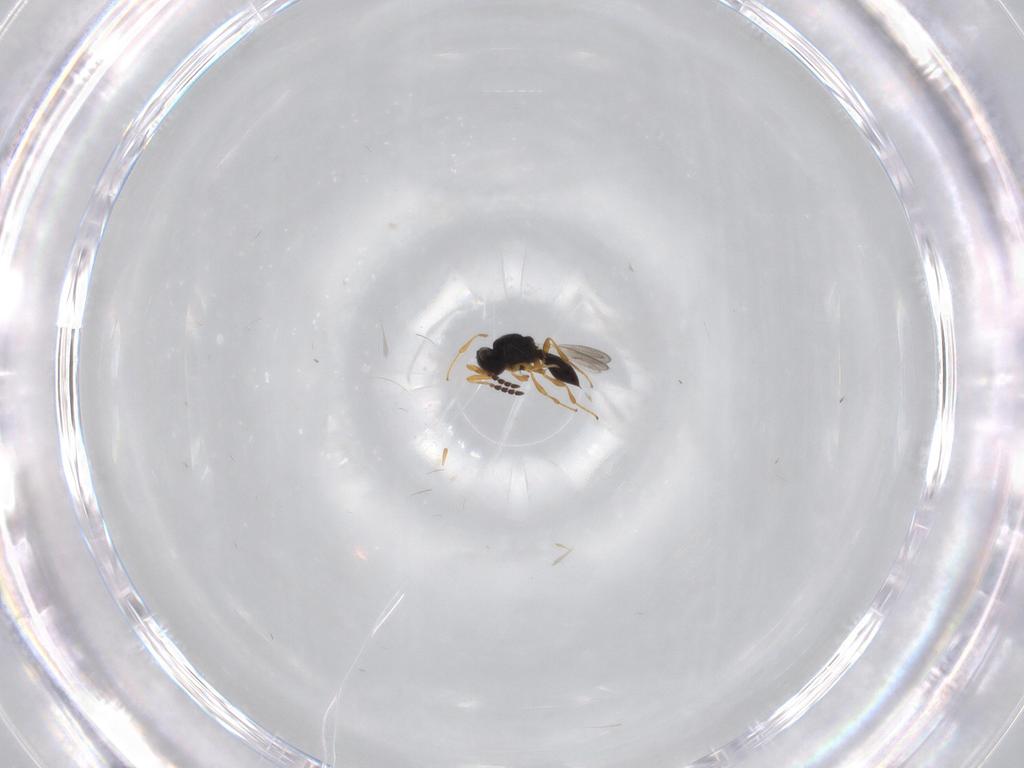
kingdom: Animalia
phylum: Arthropoda
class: Insecta
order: Hymenoptera
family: Platygastridae
